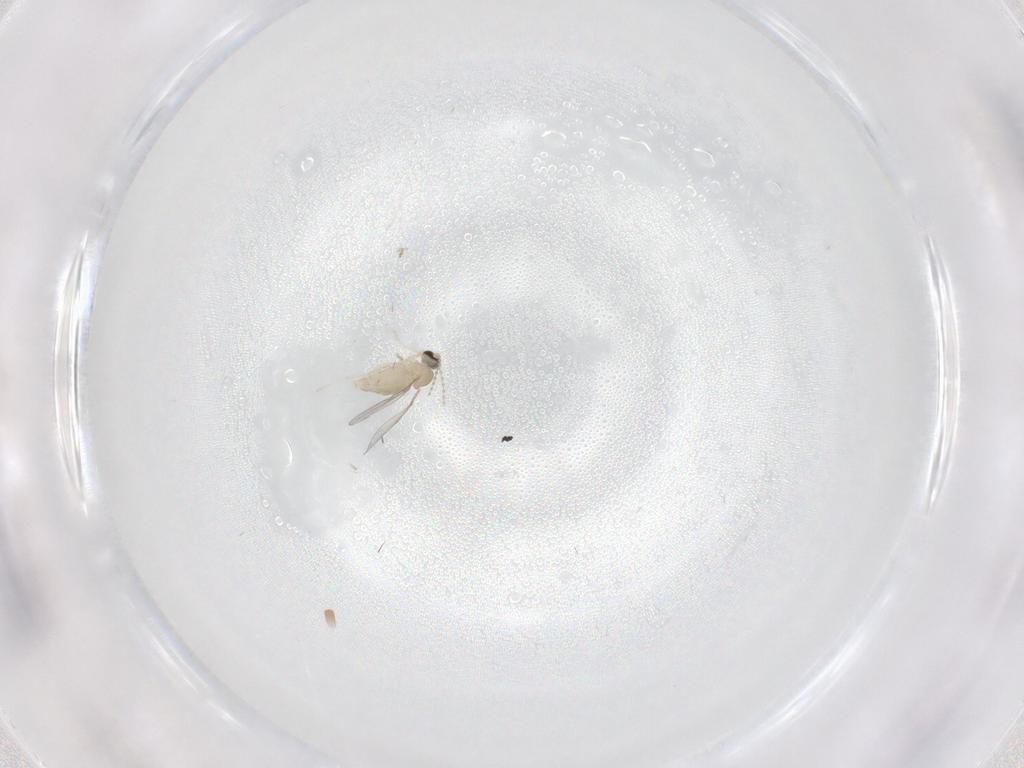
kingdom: Animalia
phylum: Arthropoda
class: Insecta
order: Diptera
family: Cecidomyiidae
